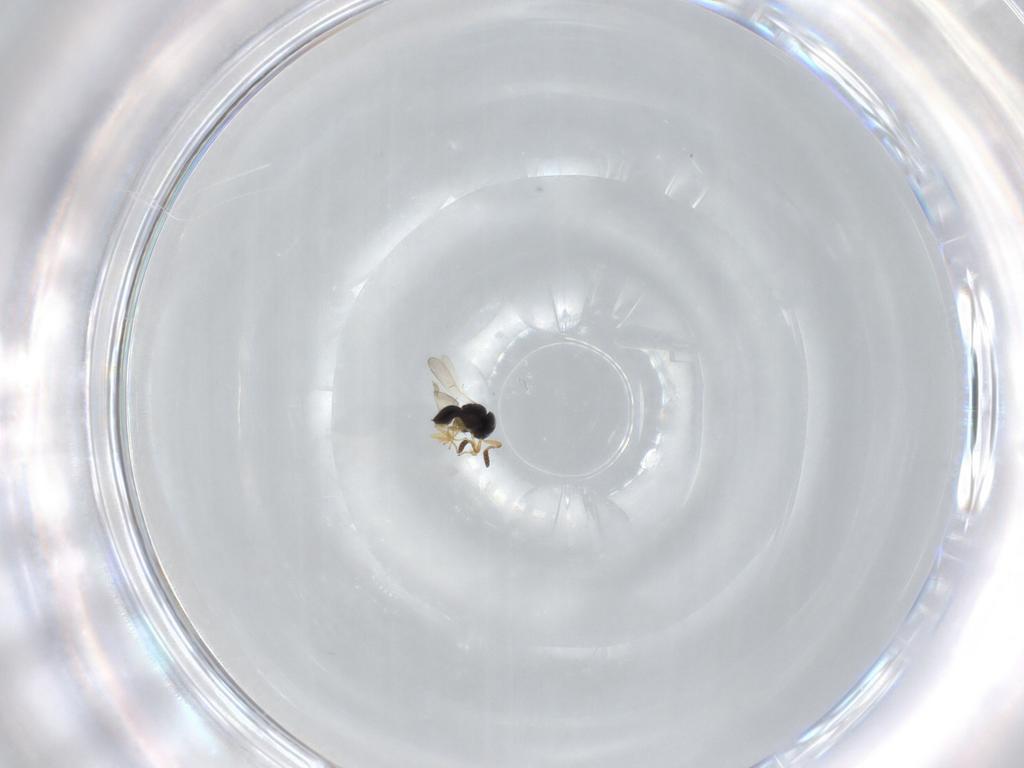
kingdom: Animalia
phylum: Arthropoda
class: Insecta
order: Hymenoptera
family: Scelionidae
